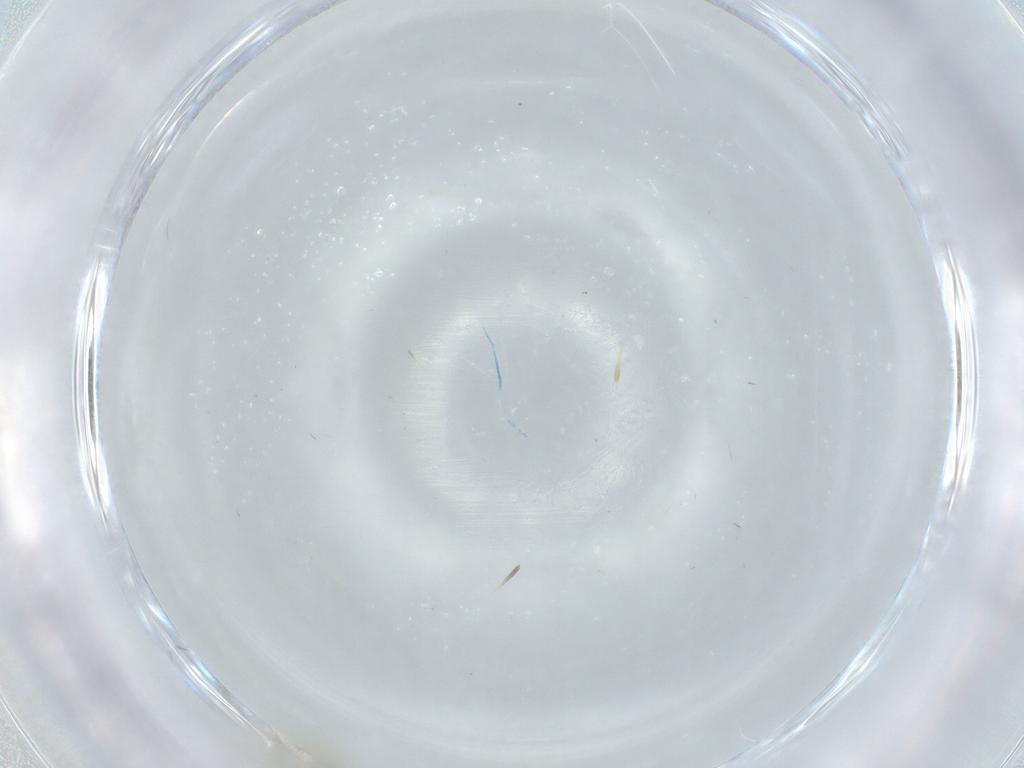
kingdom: Animalia
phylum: Arthropoda
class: Insecta
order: Diptera
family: Cecidomyiidae
